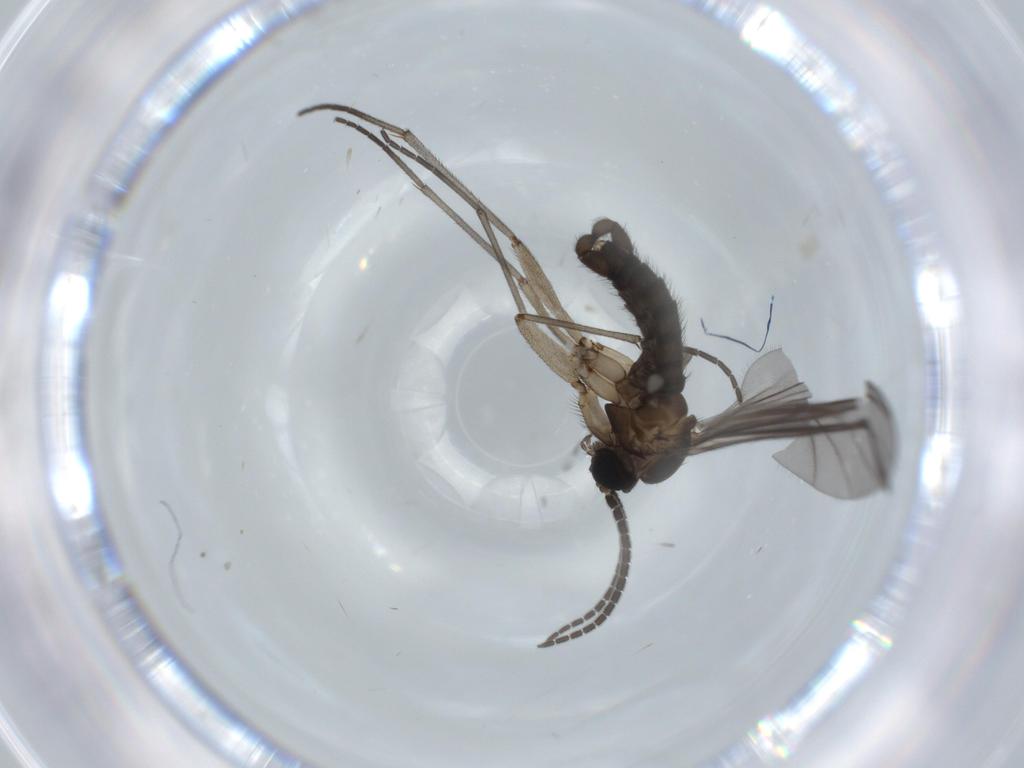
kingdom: Animalia
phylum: Arthropoda
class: Insecta
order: Diptera
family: Sciaridae
